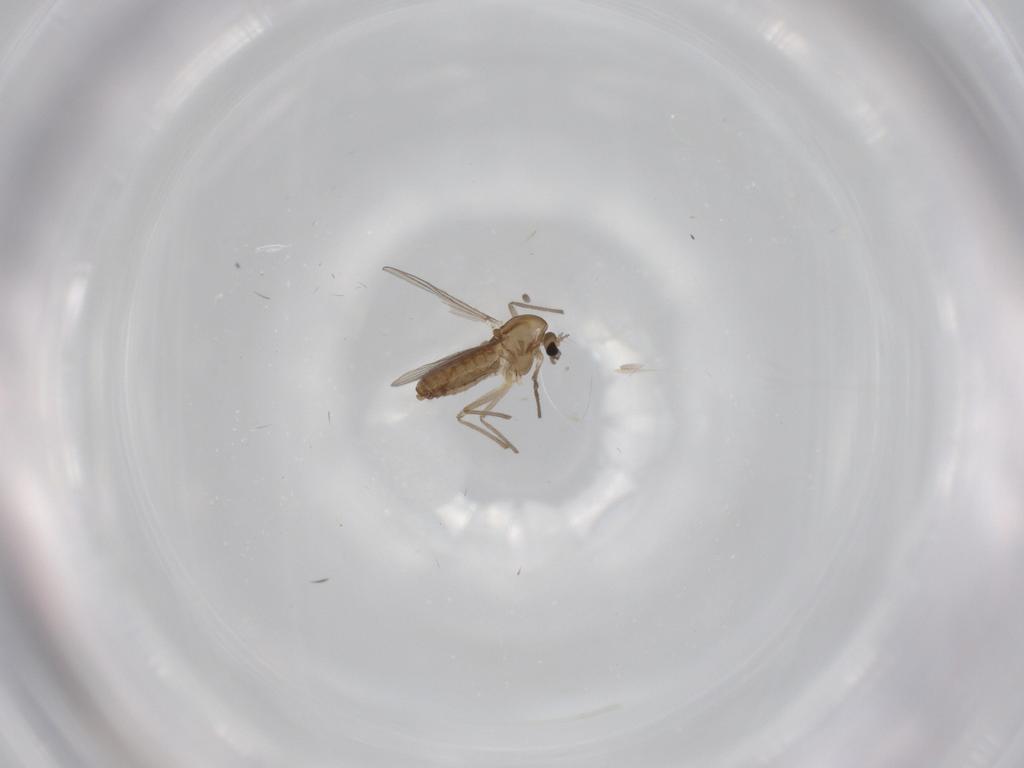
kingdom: Animalia
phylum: Arthropoda
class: Insecta
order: Diptera
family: Chironomidae
